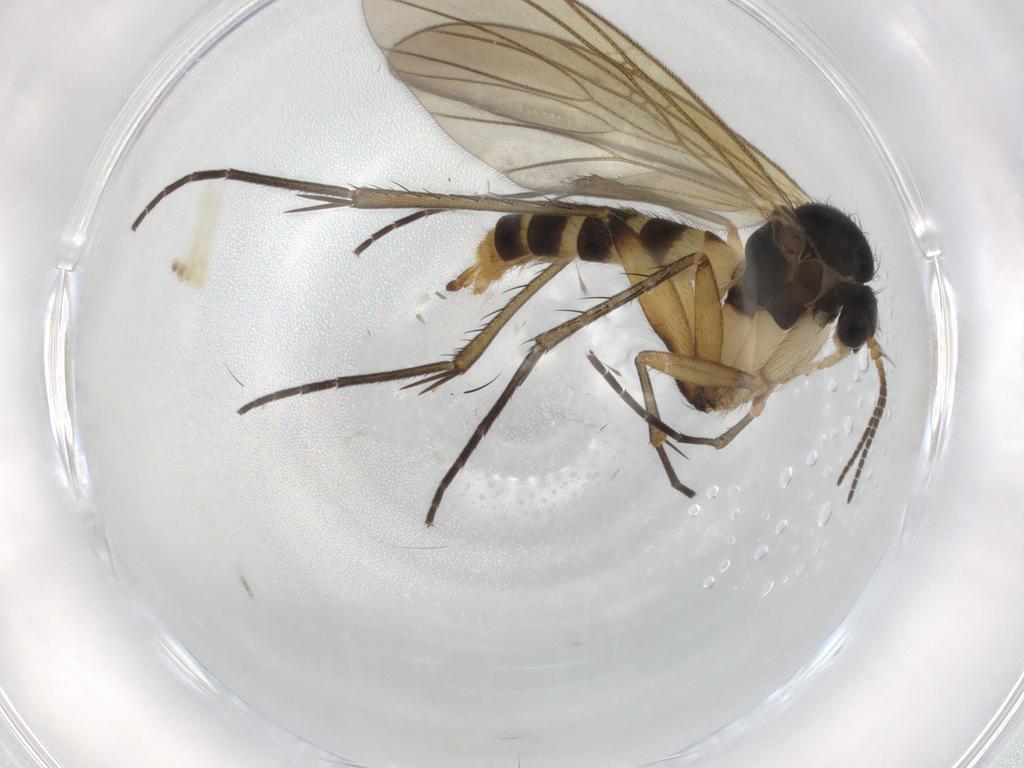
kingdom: Animalia
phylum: Arthropoda
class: Insecta
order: Diptera
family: Chironomidae
